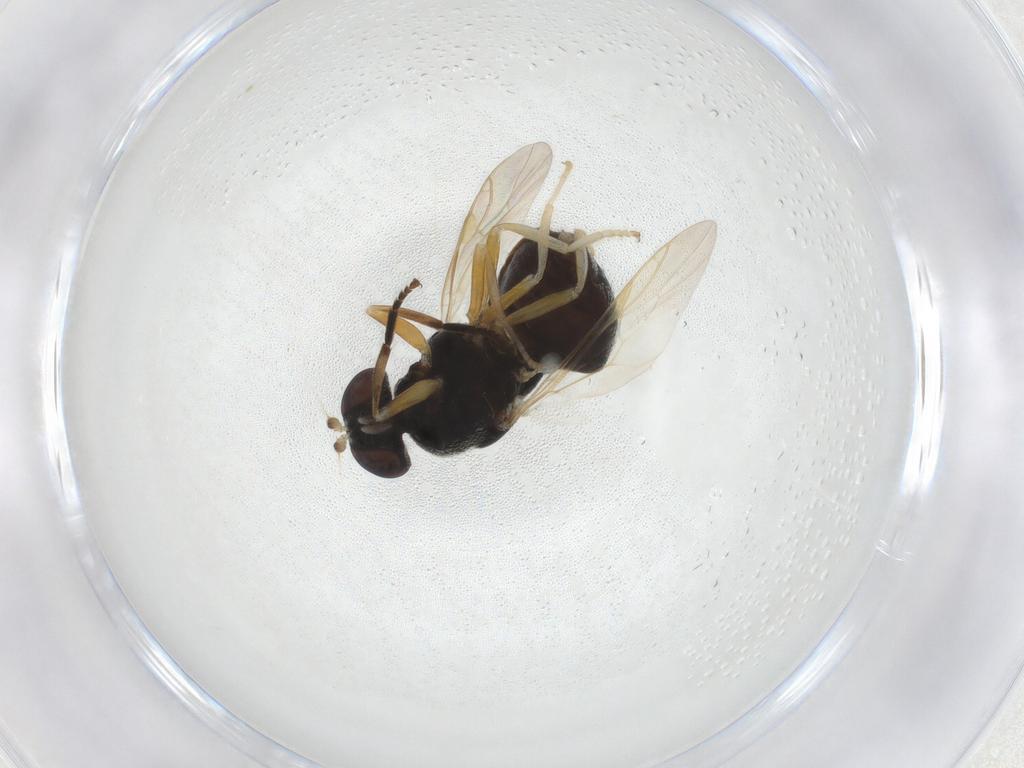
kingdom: Animalia
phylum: Arthropoda
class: Insecta
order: Diptera
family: Stratiomyidae
